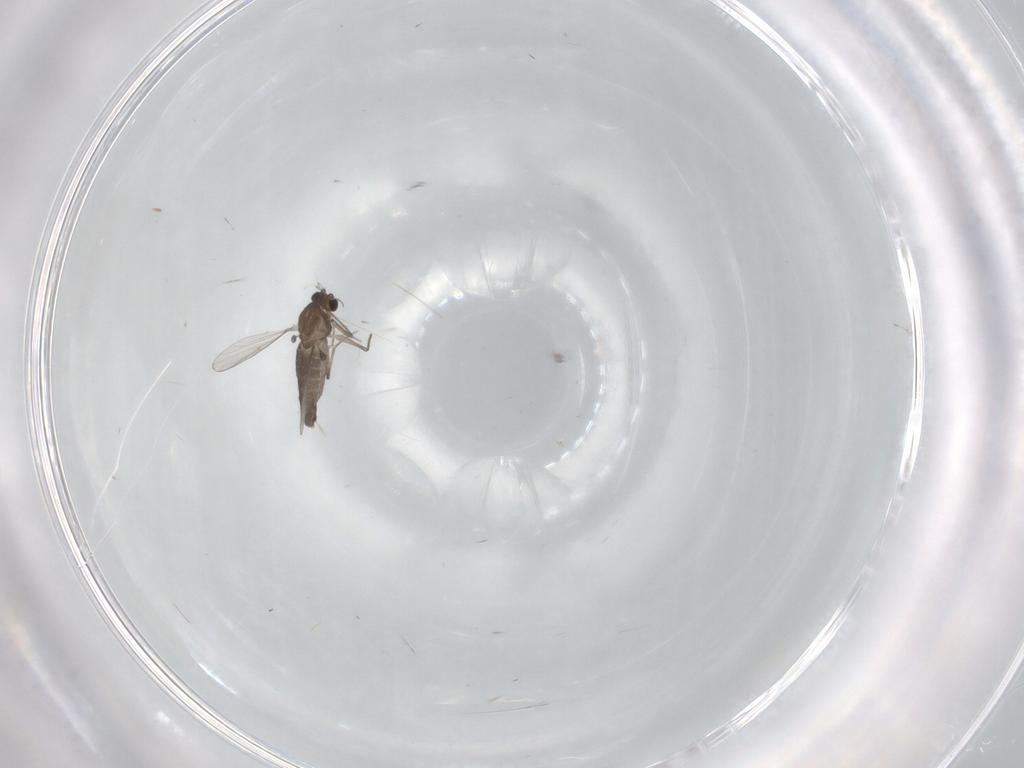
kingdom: Animalia
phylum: Arthropoda
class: Insecta
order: Diptera
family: Chironomidae
